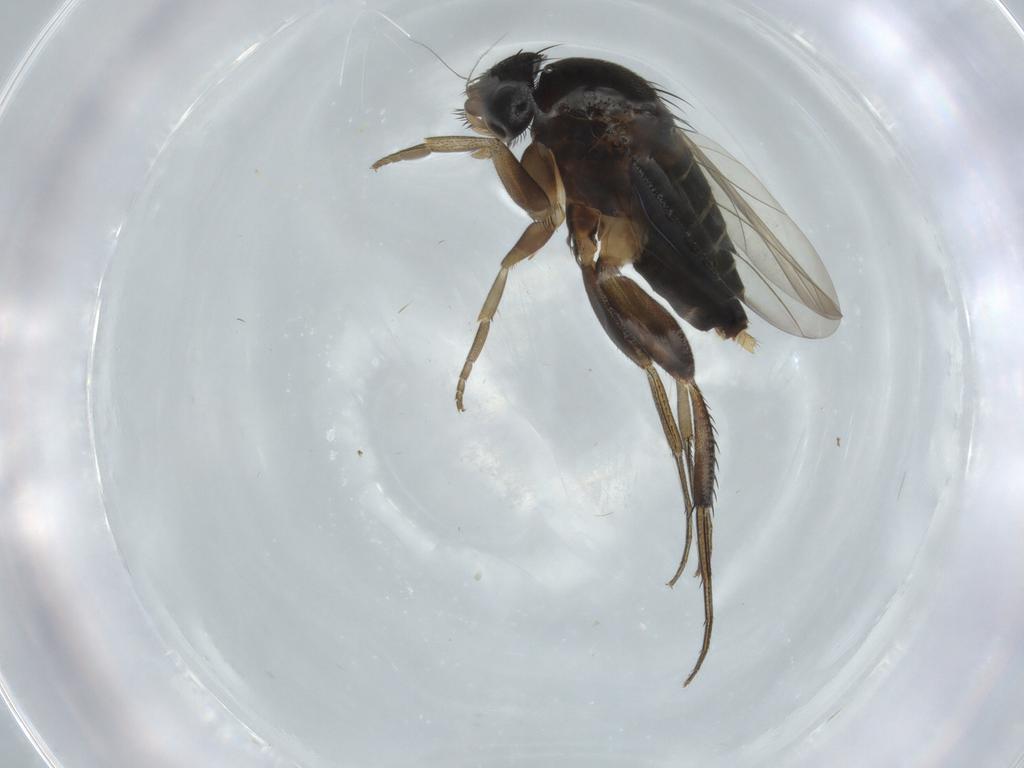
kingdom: Animalia
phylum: Arthropoda
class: Insecta
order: Diptera
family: Phoridae
